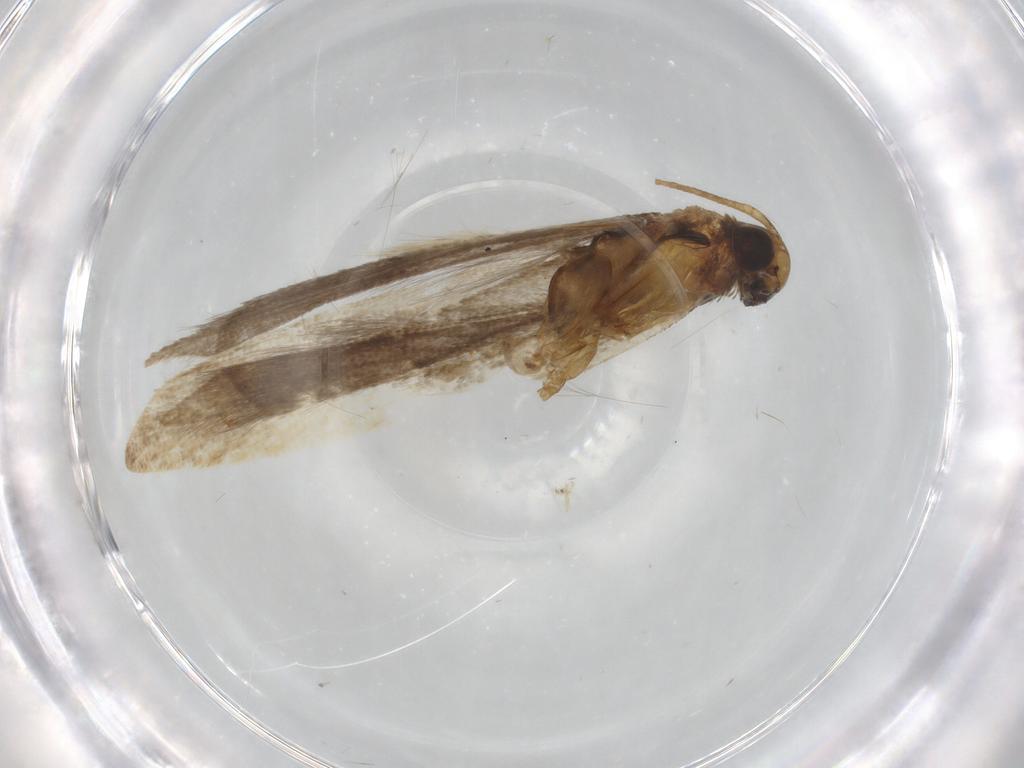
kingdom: Animalia
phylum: Arthropoda
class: Insecta
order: Lepidoptera
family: Gelechiidae
